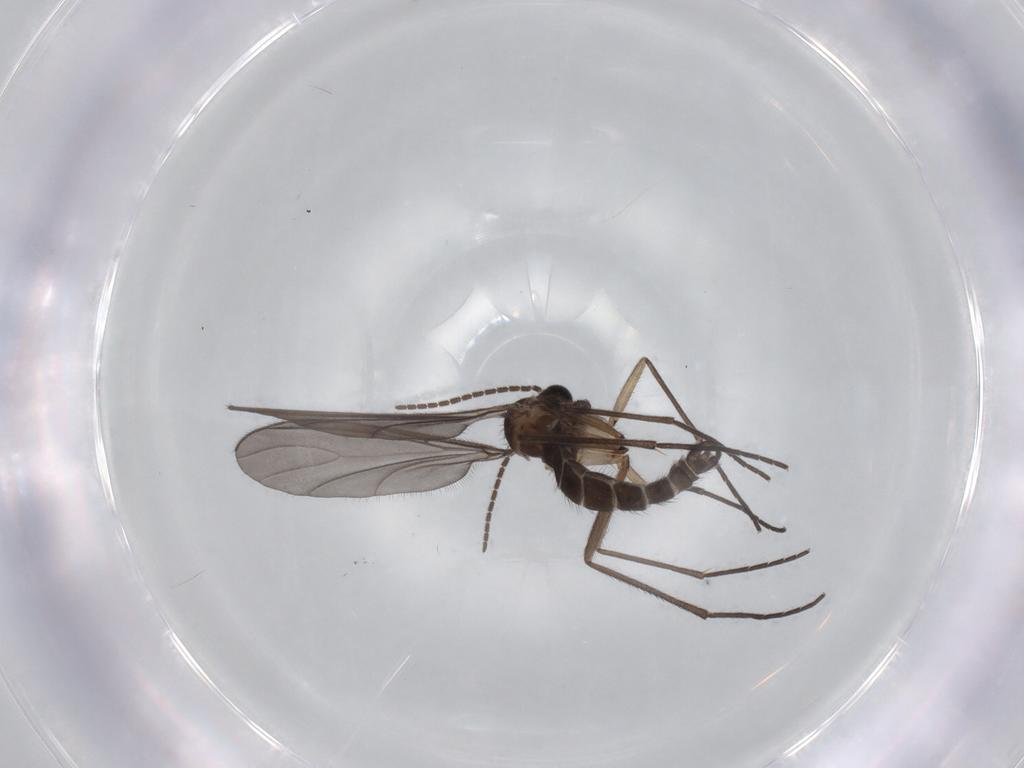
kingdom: Animalia
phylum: Arthropoda
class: Insecta
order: Diptera
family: Sciaridae
